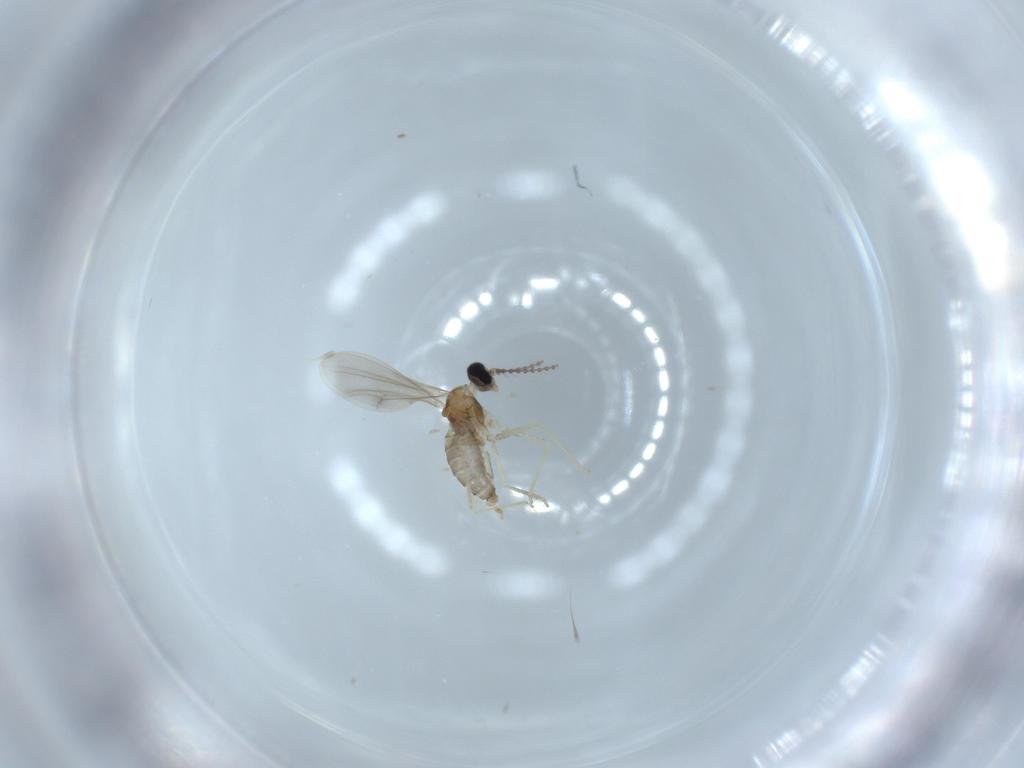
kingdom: Animalia
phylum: Arthropoda
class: Insecta
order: Diptera
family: Cecidomyiidae
